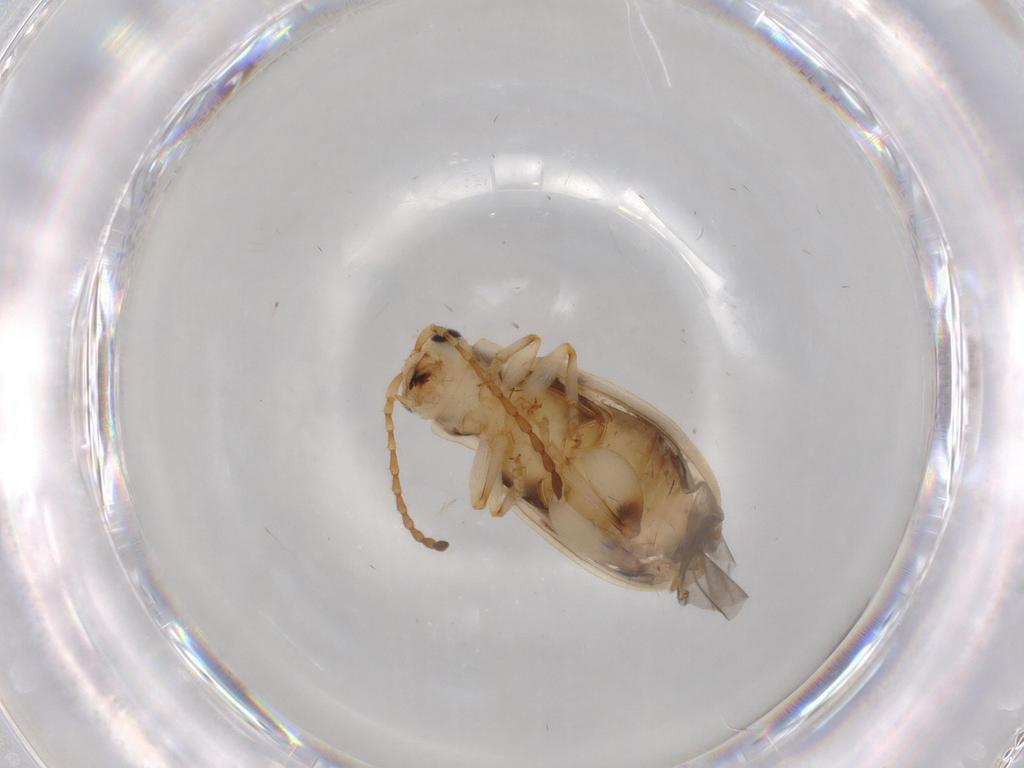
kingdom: Animalia
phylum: Arthropoda
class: Insecta
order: Coleoptera
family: Chrysomelidae
